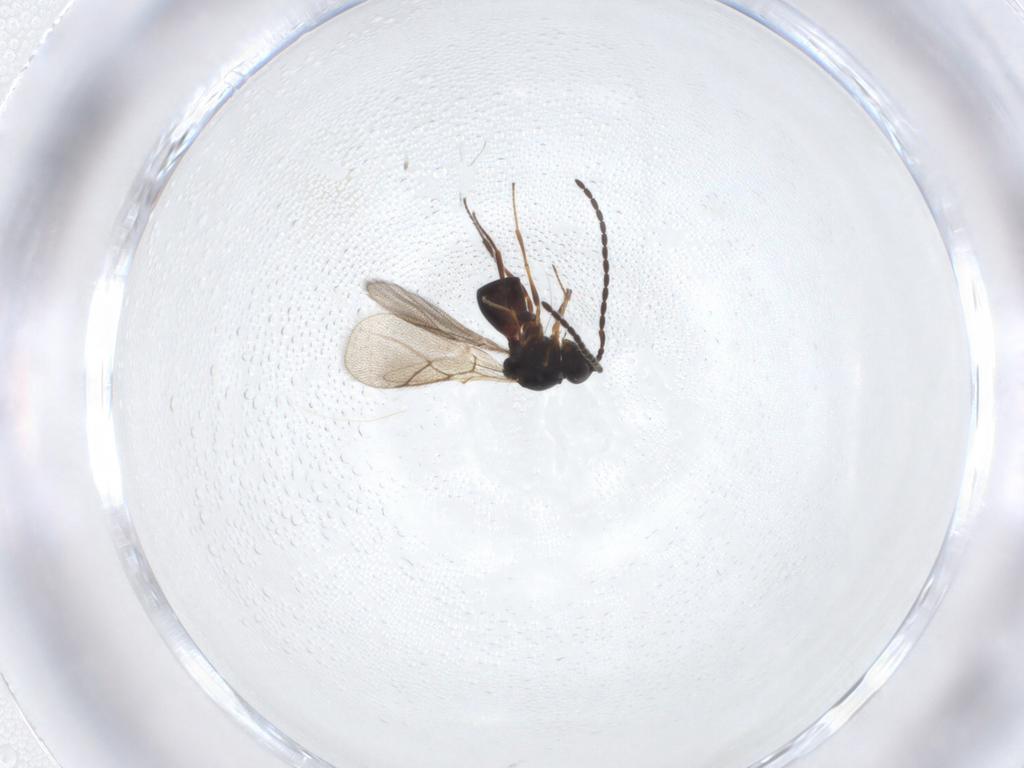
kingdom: Animalia
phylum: Arthropoda
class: Insecta
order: Hymenoptera
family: Figitidae
